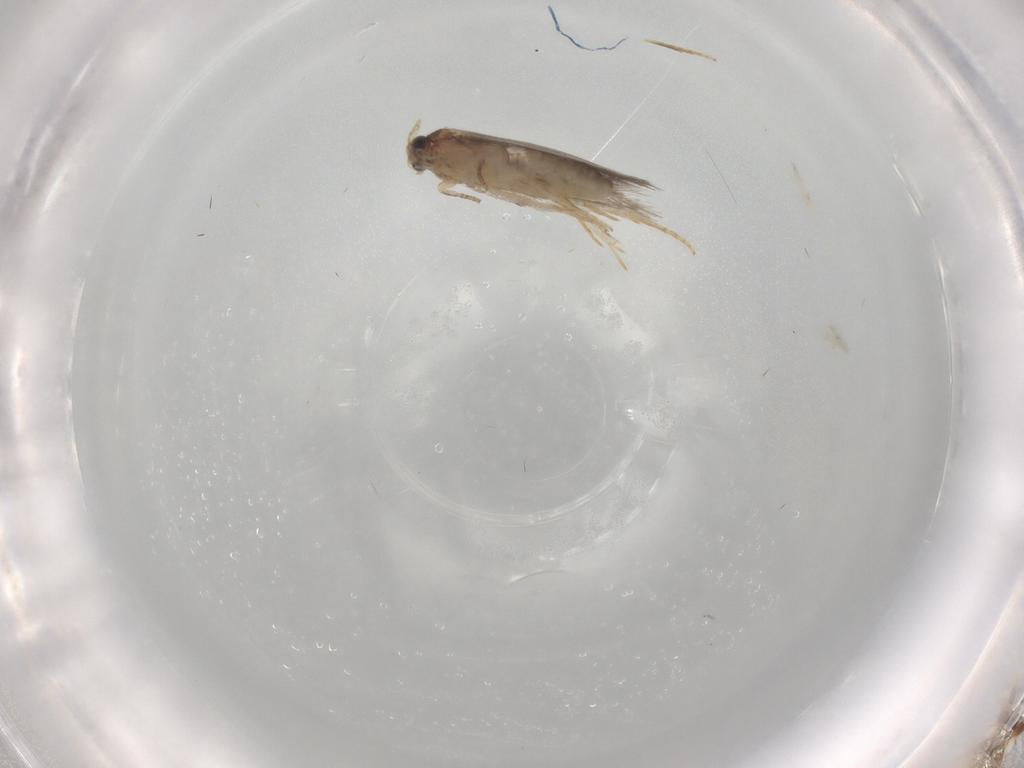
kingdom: Animalia
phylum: Arthropoda
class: Insecta
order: Lepidoptera
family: Nepticulidae
